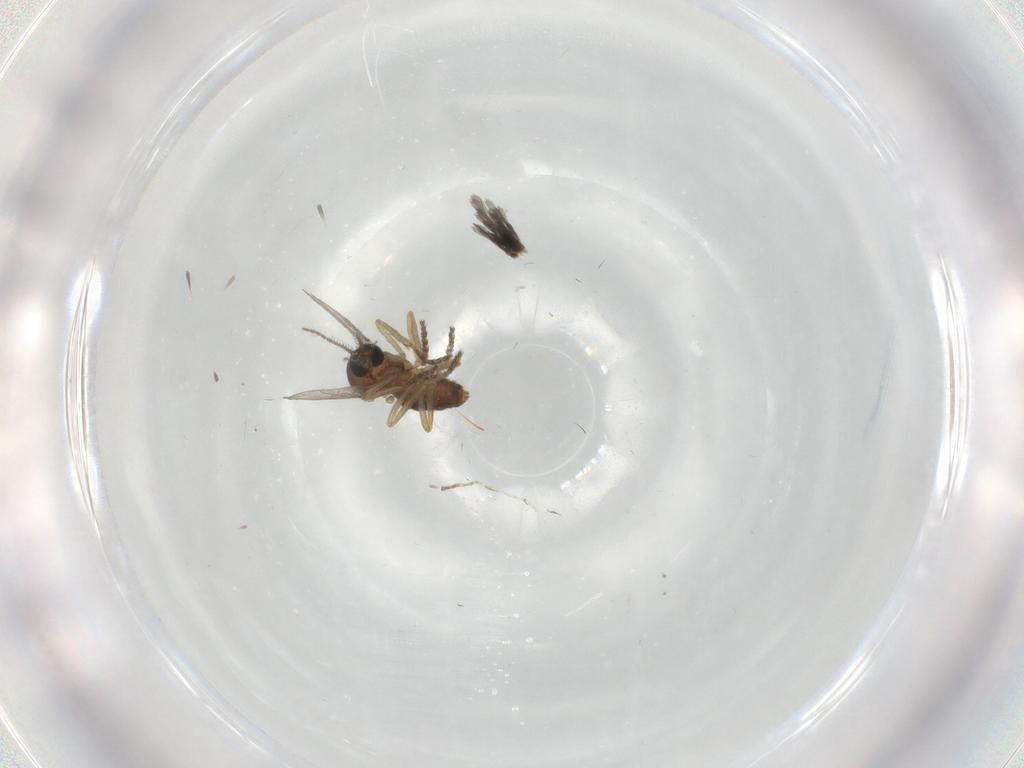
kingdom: Animalia
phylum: Arthropoda
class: Insecta
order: Diptera
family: Ceratopogonidae
